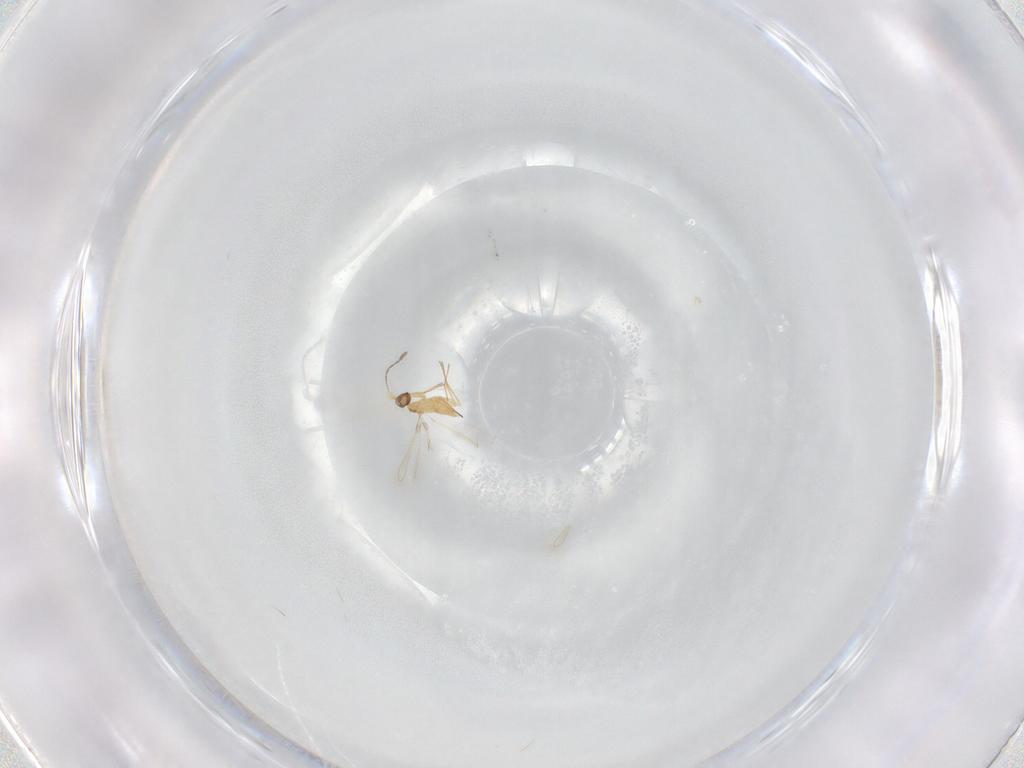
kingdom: Animalia
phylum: Arthropoda
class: Insecta
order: Hymenoptera
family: Mymaridae
